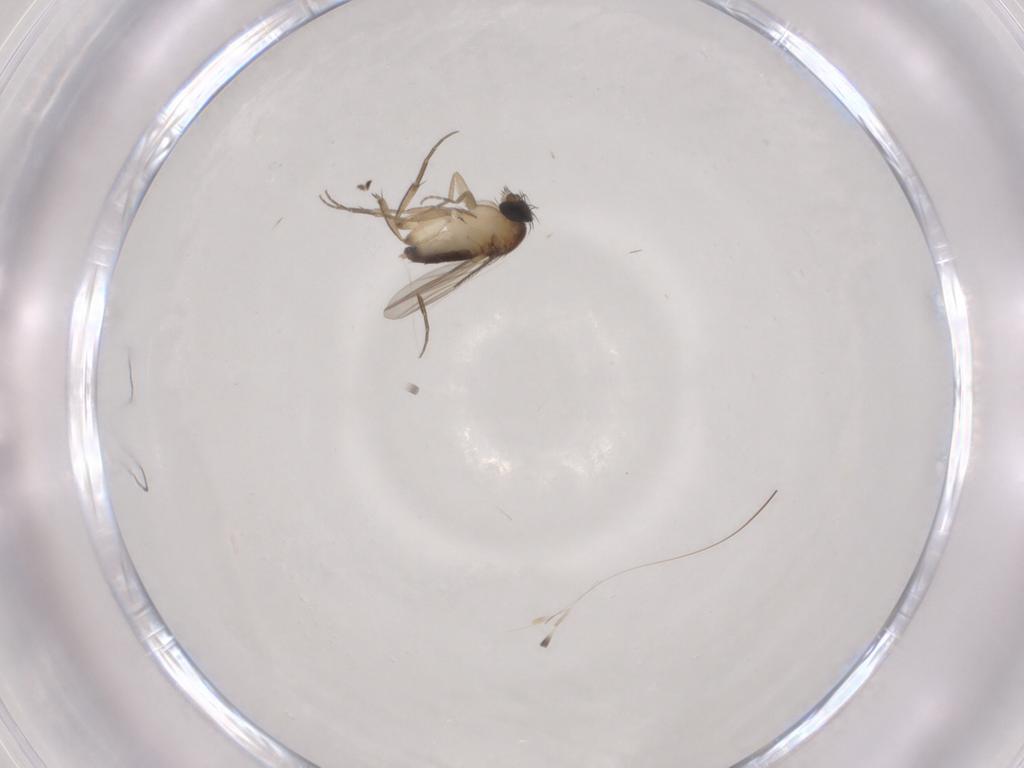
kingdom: Animalia
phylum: Arthropoda
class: Insecta
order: Diptera
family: Phoridae
